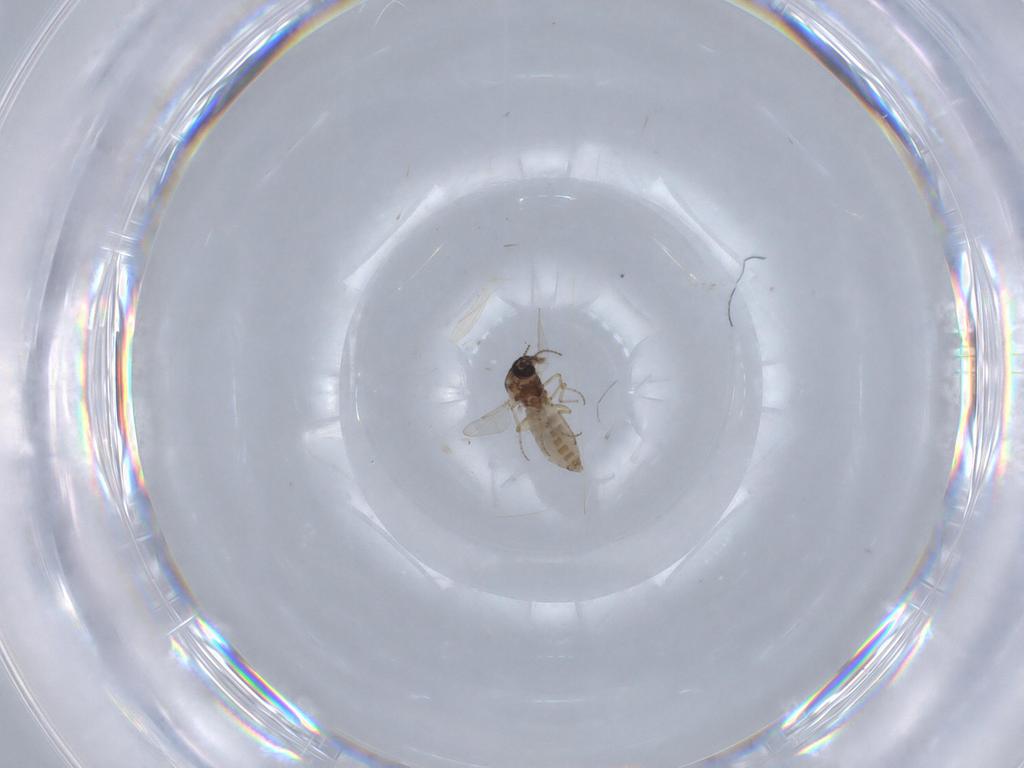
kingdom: Animalia
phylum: Arthropoda
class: Insecta
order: Diptera
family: Ceratopogonidae
